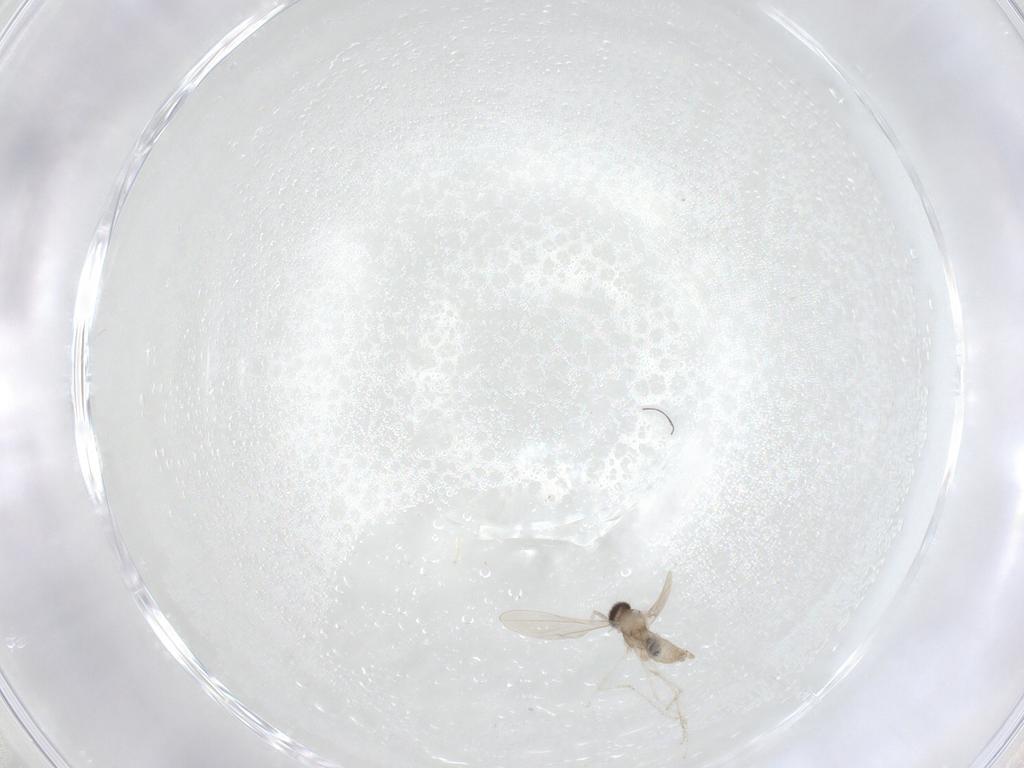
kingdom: Animalia
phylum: Arthropoda
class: Insecta
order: Diptera
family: Cecidomyiidae
